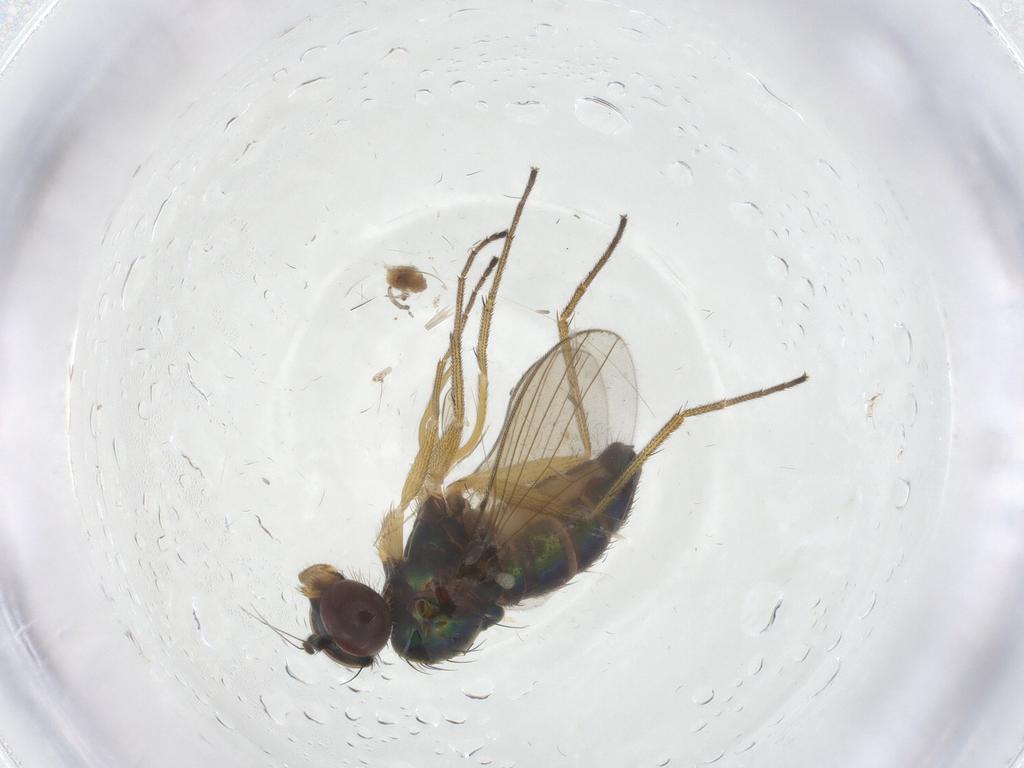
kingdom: Animalia
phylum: Arthropoda
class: Insecta
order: Diptera
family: Dolichopodidae
